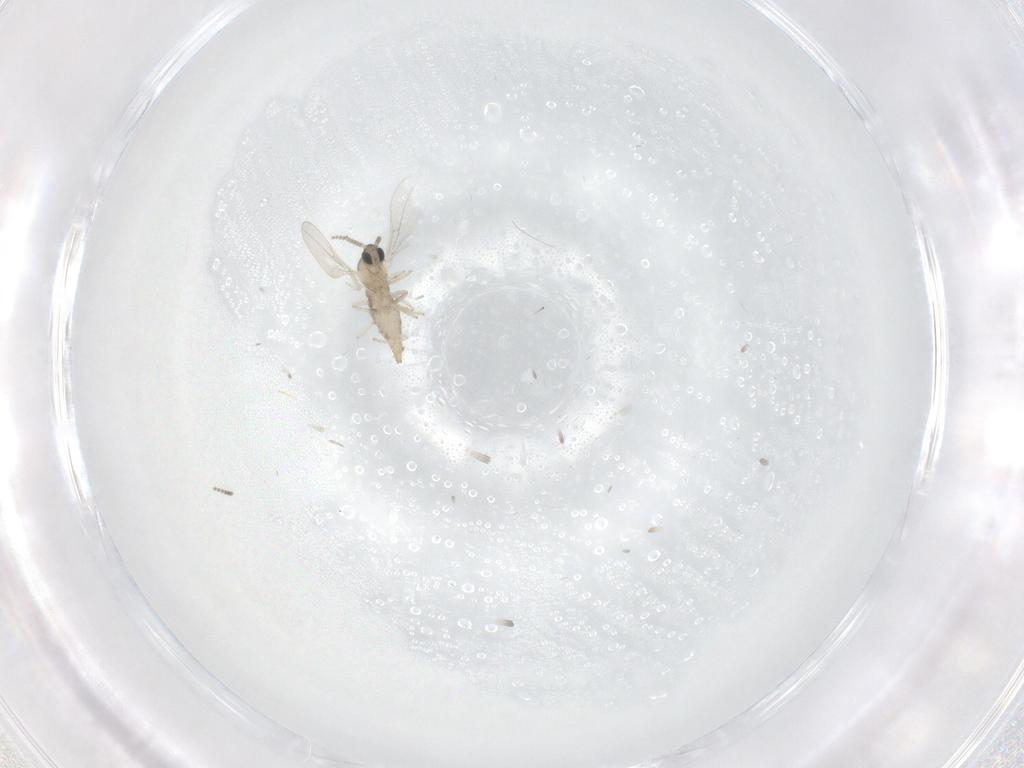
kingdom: Animalia
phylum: Arthropoda
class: Insecta
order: Diptera
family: Cecidomyiidae
